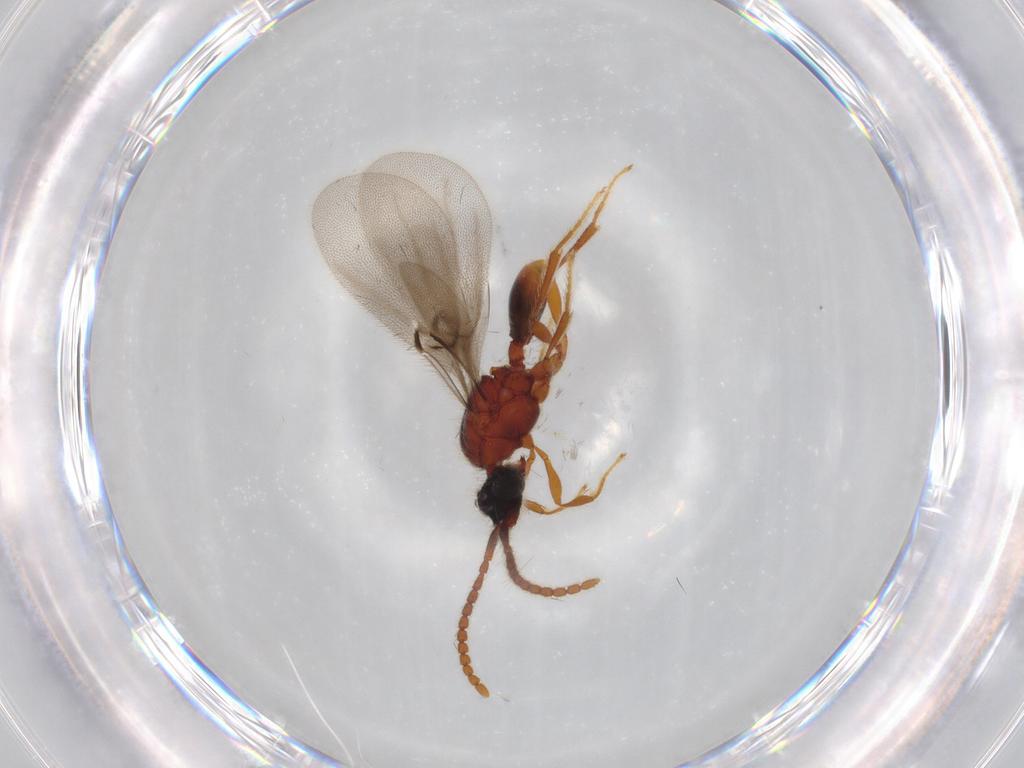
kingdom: Animalia
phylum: Arthropoda
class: Insecta
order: Hymenoptera
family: Diapriidae
